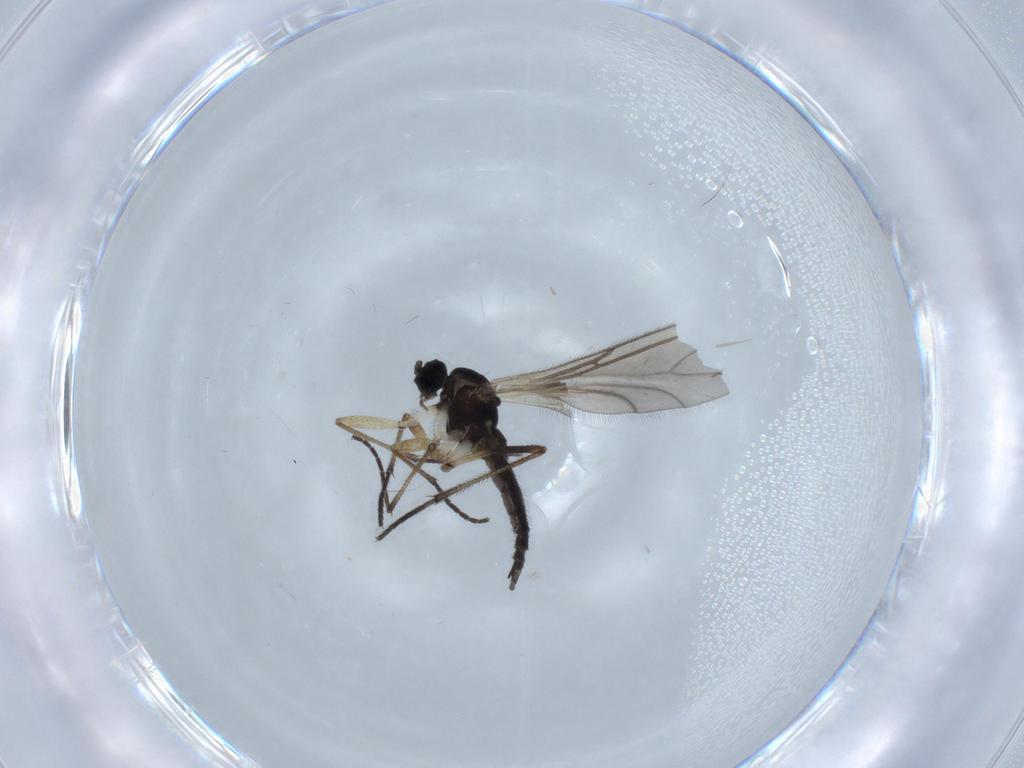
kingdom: Animalia
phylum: Arthropoda
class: Insecta
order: Diptera
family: Sciaridae
